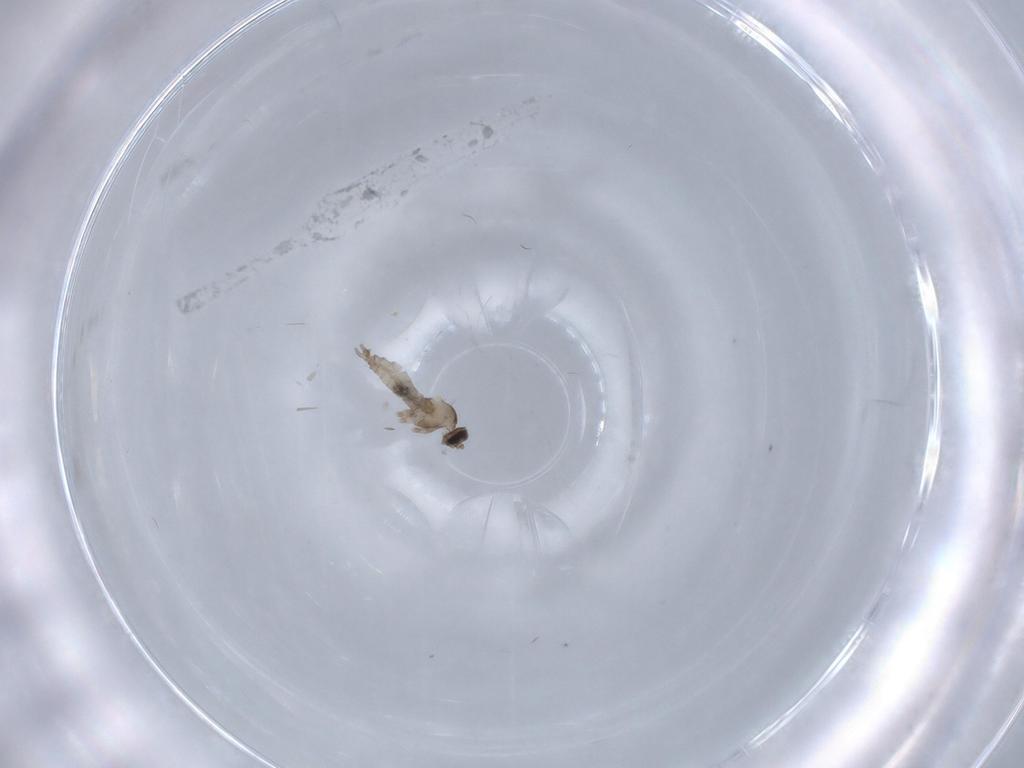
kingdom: Animalia
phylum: Arthropoda
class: Insecta
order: Diptera
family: Cecidomyiidae
